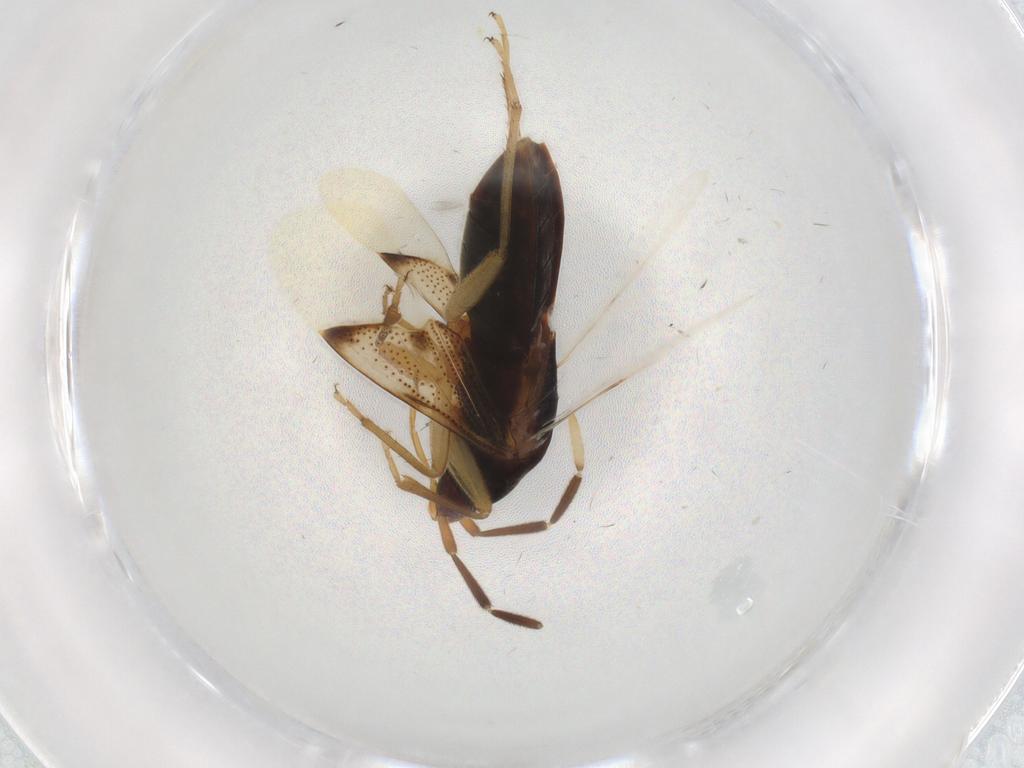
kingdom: Animalia
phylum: Arthropoda
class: Insecta
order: Hemiptera
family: Rhyparochromidae
